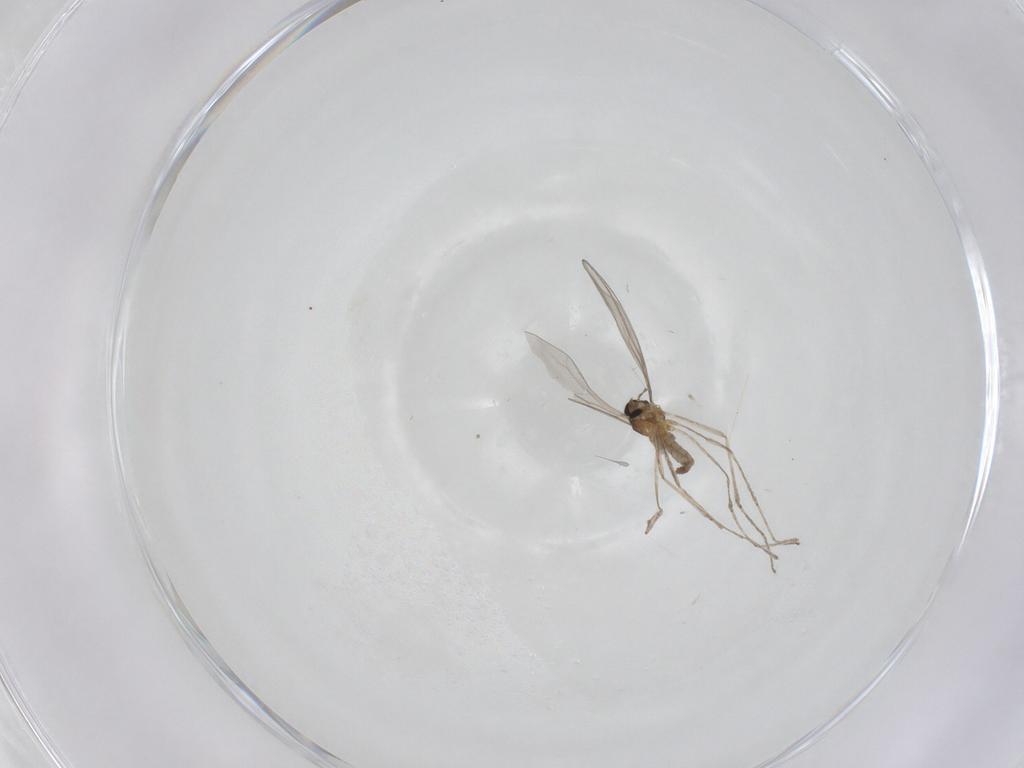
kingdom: Animalia
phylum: Arthropoda
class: Insecta
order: Diptera
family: Cecidomyiidae
